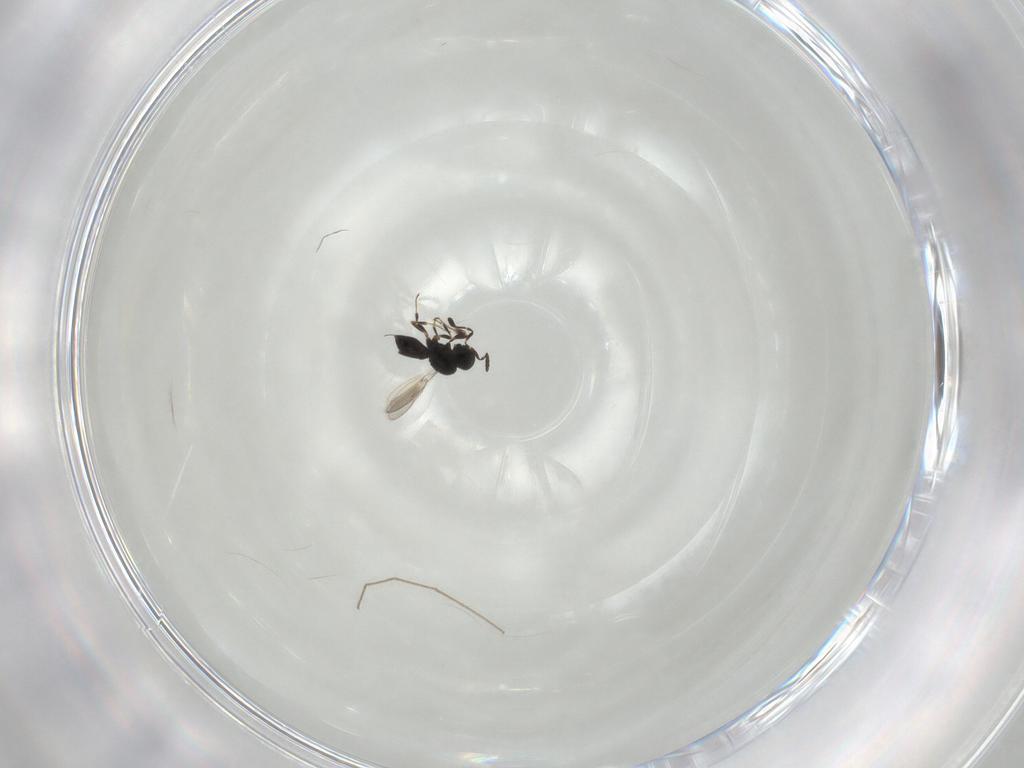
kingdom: Animalia
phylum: Arthropoda
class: Insecta
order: Hymenoptera
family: Scelionidae
